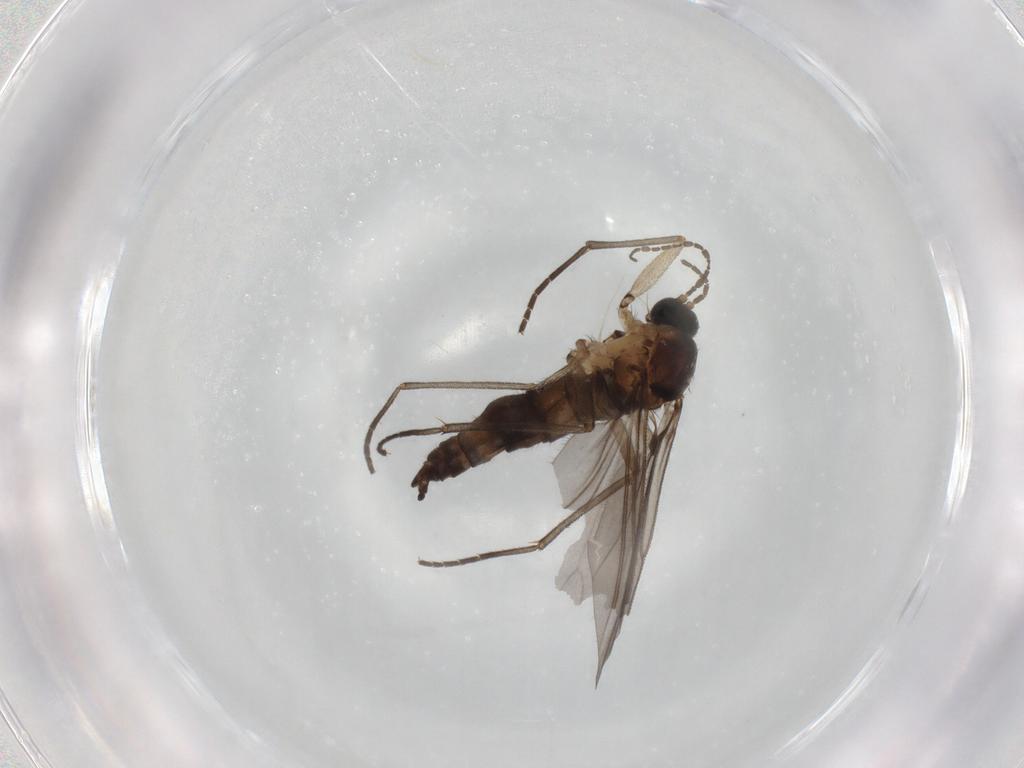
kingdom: Animalia
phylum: Arthropoda
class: Insecta
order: Diptera
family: Sciaridae
